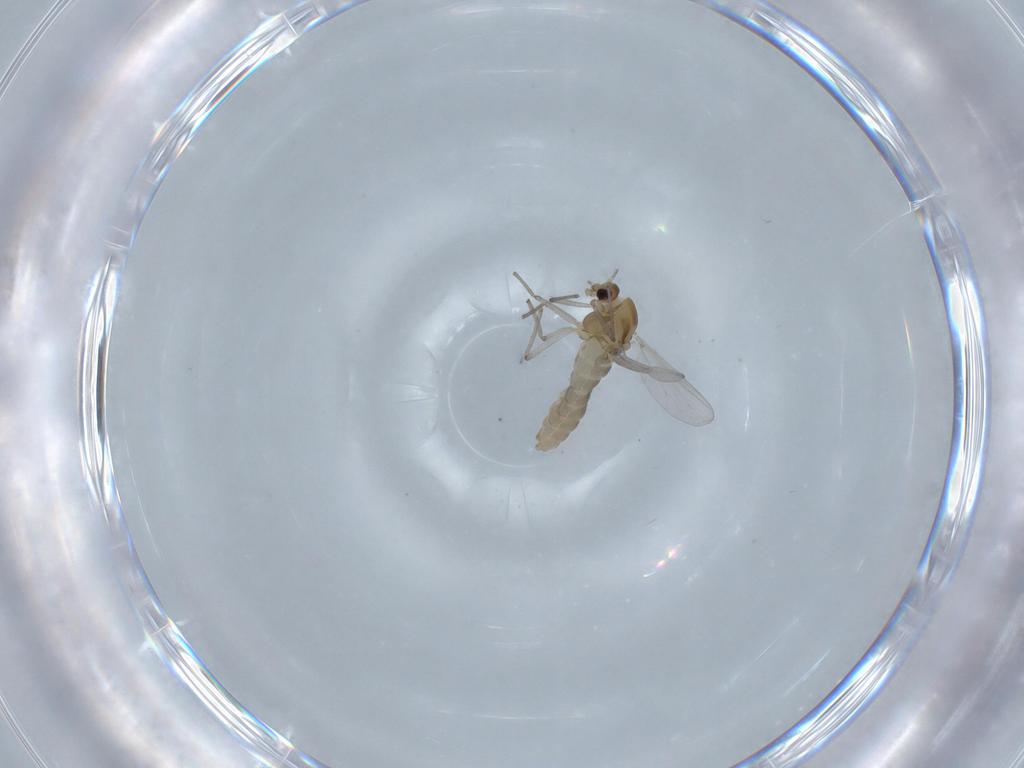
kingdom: Animalia
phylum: Arthropoda
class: Insecta
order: Diptera
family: Chironomidae
